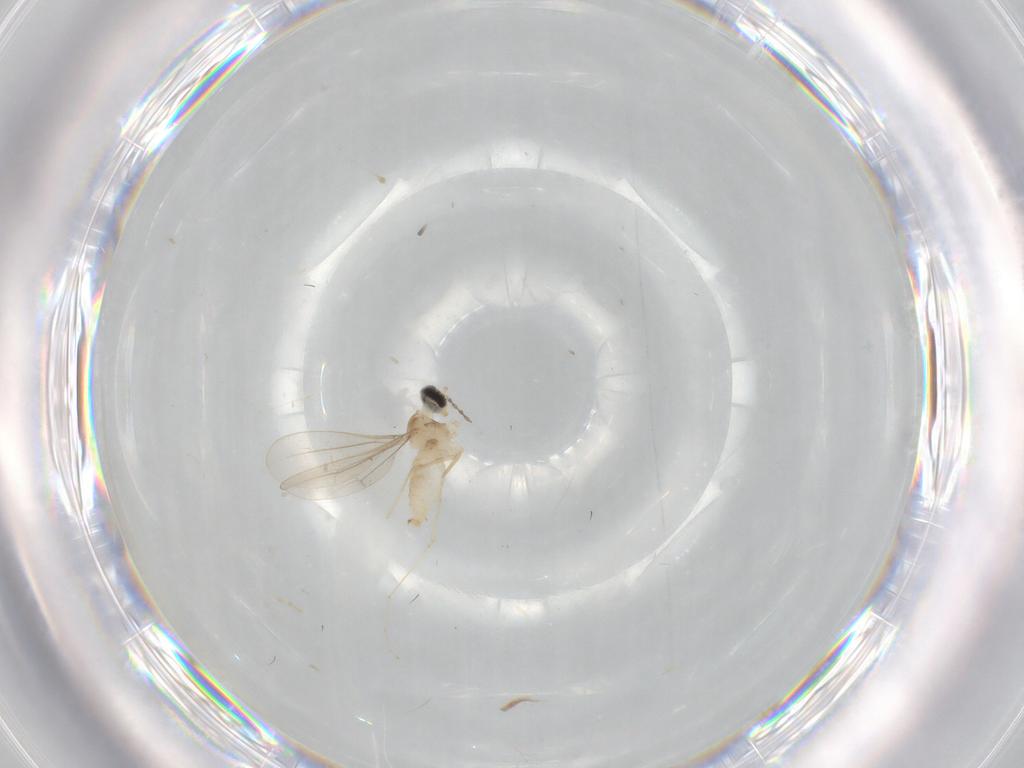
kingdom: Animalia
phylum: Arthropoda
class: Insecta
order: Diptera
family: Cecidomyiidae
